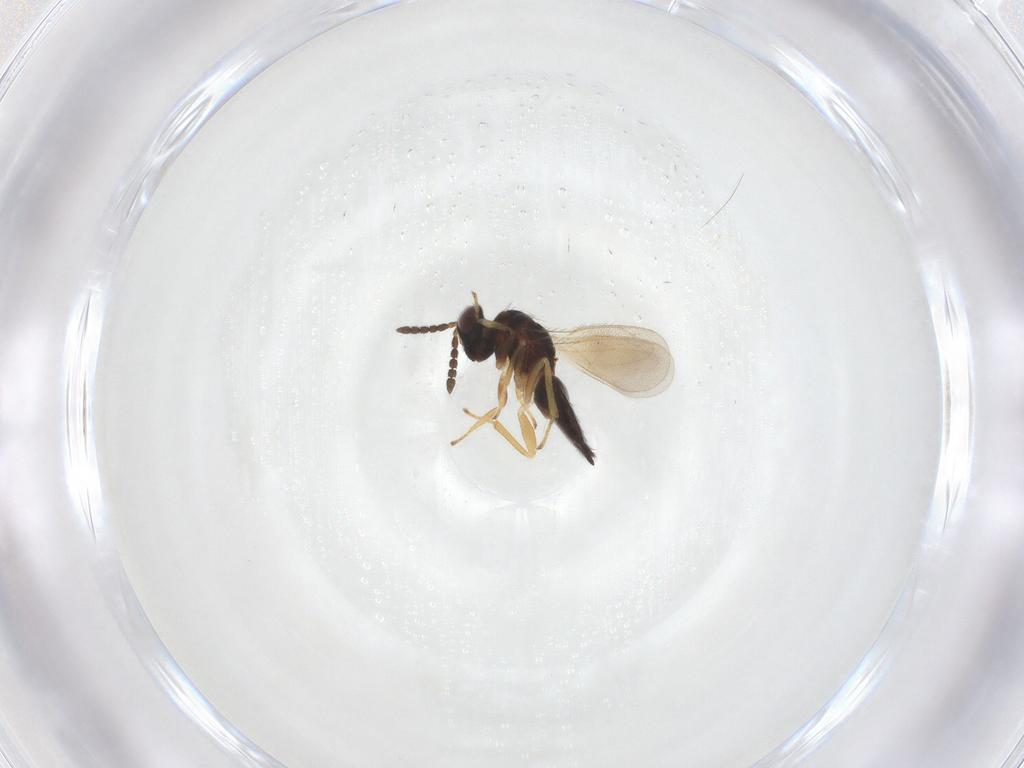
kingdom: Animalia
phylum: Arthropoda
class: Insecta
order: Hymenoptera
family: Eulophidae
